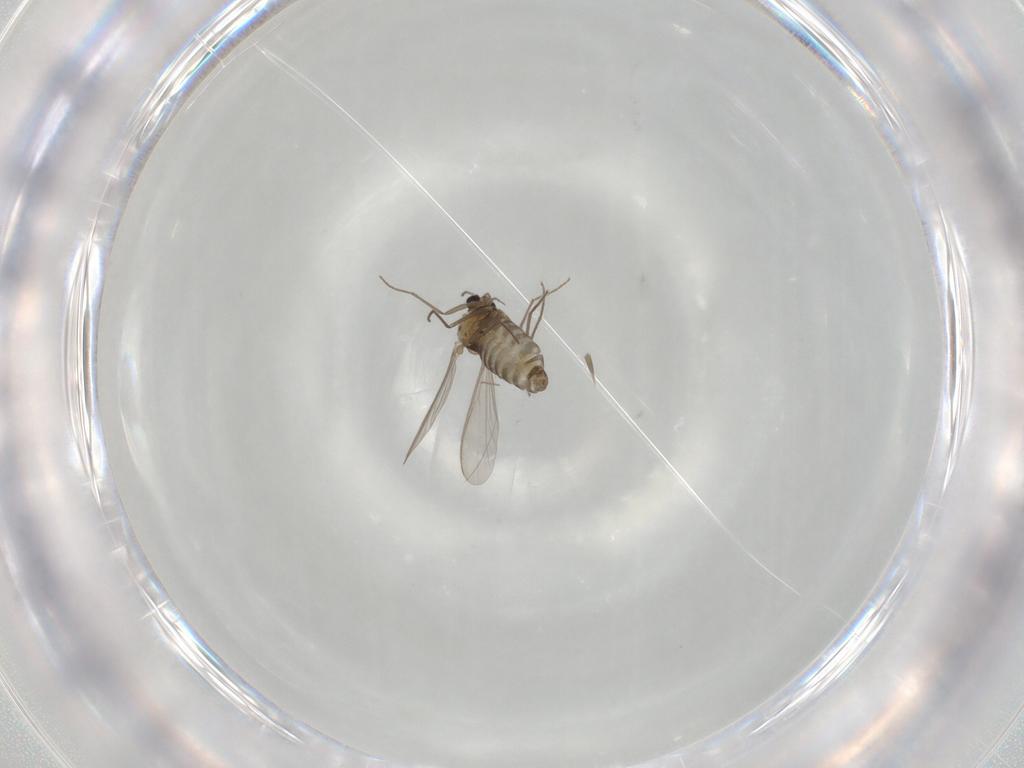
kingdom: Animalia
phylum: Arthropoda
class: Insecta
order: Diptera
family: Chironomidae
